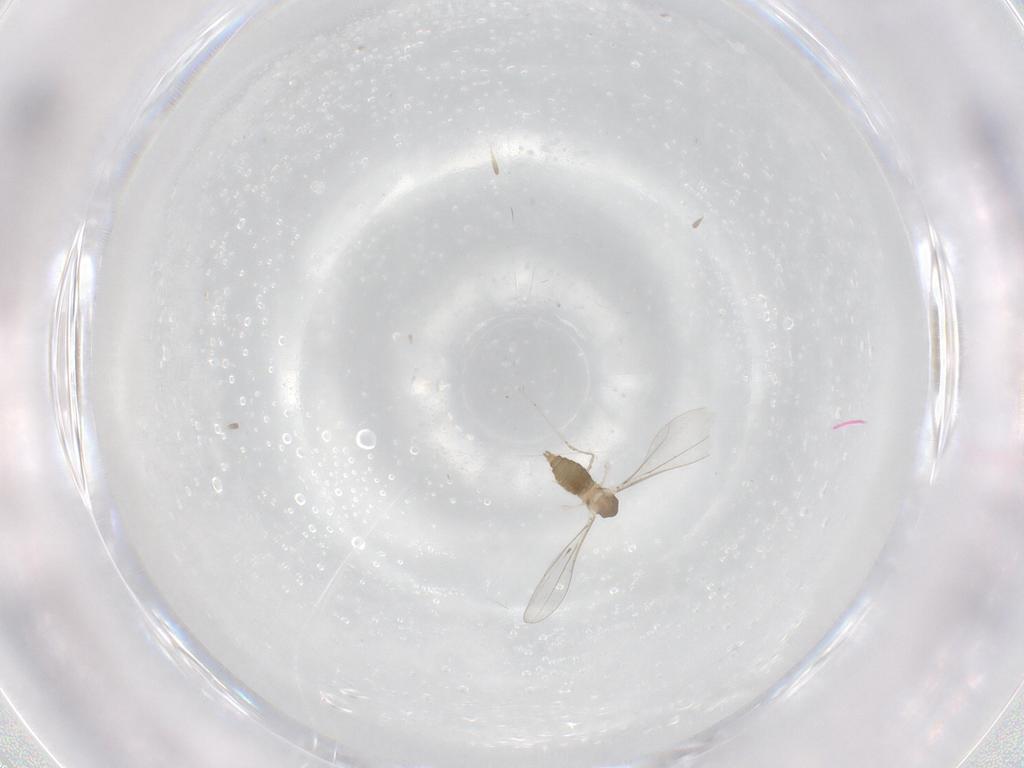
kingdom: Animalia
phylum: Arthropoda
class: Insecta
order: Diptera
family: Cecidomyiidae
